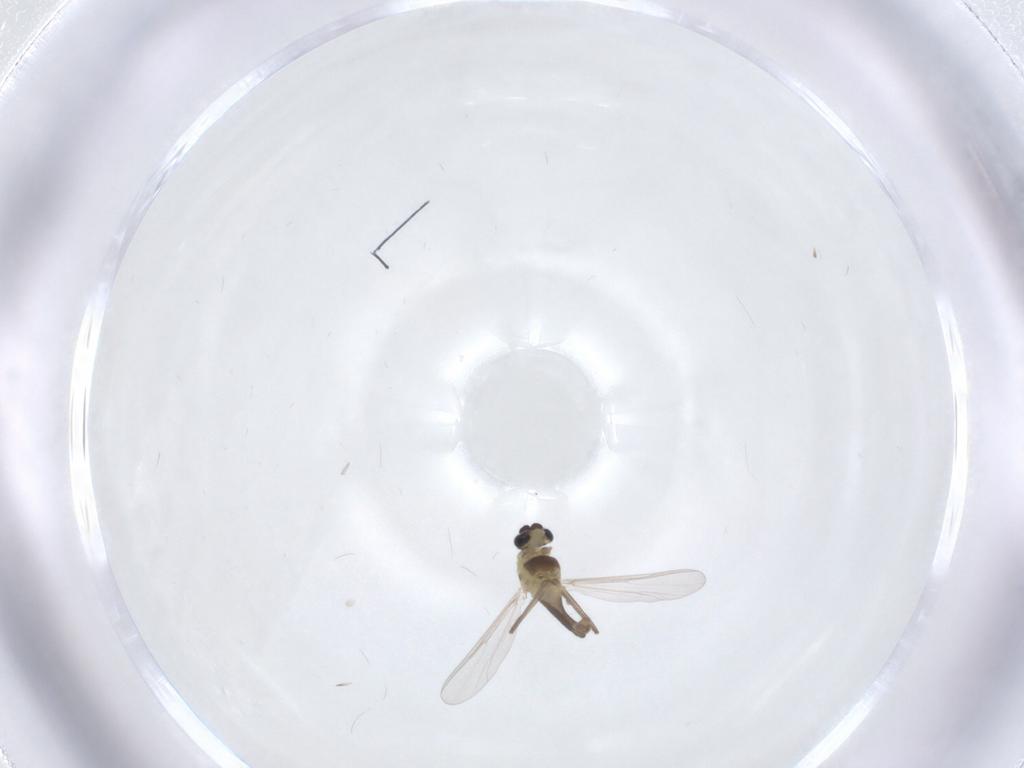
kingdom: Animalia
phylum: Arthropoda
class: Insecta
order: Diptera
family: Chironomidae
